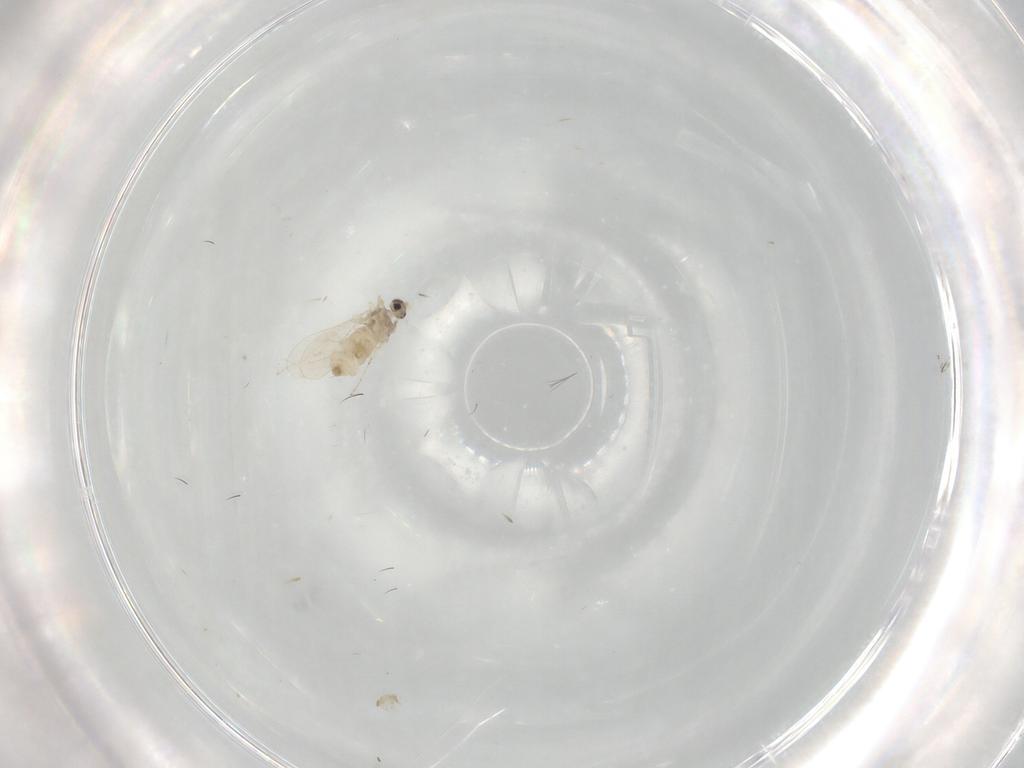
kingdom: Animalia
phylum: Arthropoda
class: Insecta
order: Diptera
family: Cecidomyiidae
